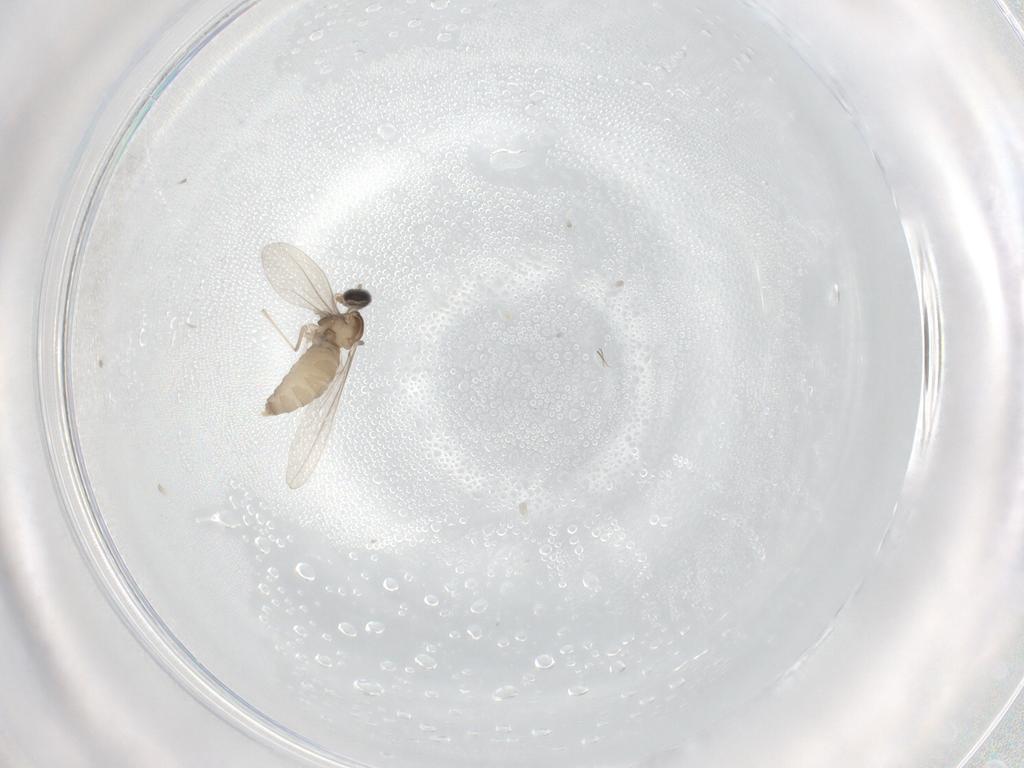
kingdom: Animalia
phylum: Arthropoda
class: Insecta
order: Diptera
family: Cecidomyiidae
